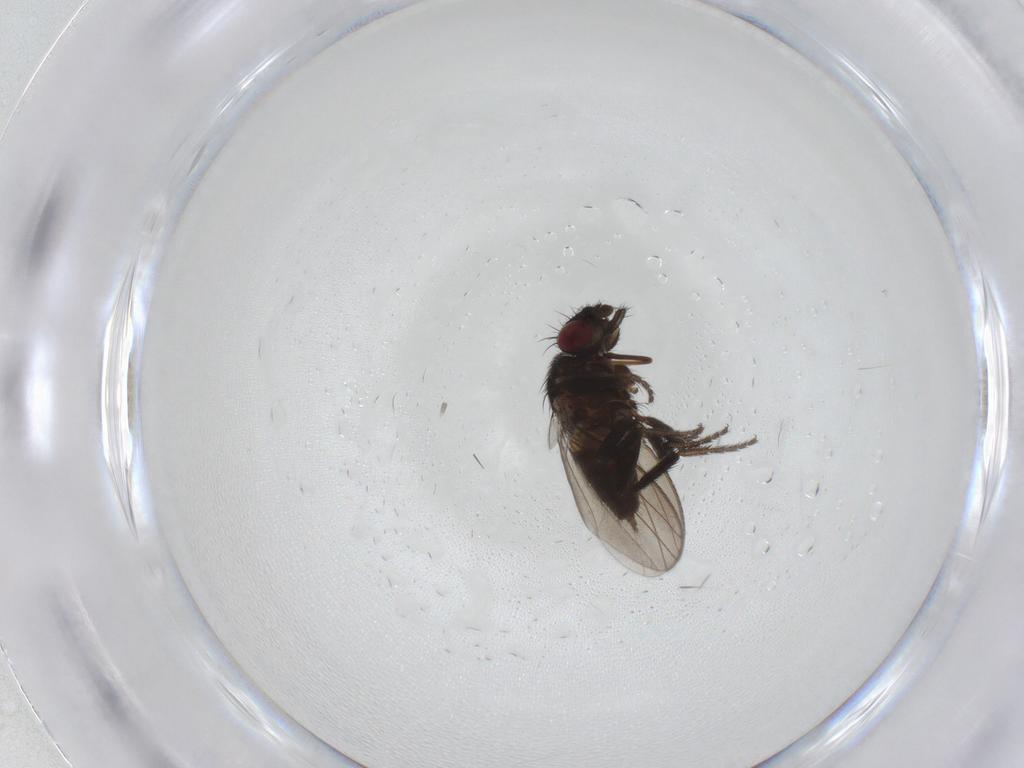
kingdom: Animalia
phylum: Arthropoda
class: Insecta
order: Diptera
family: Milichiidae
